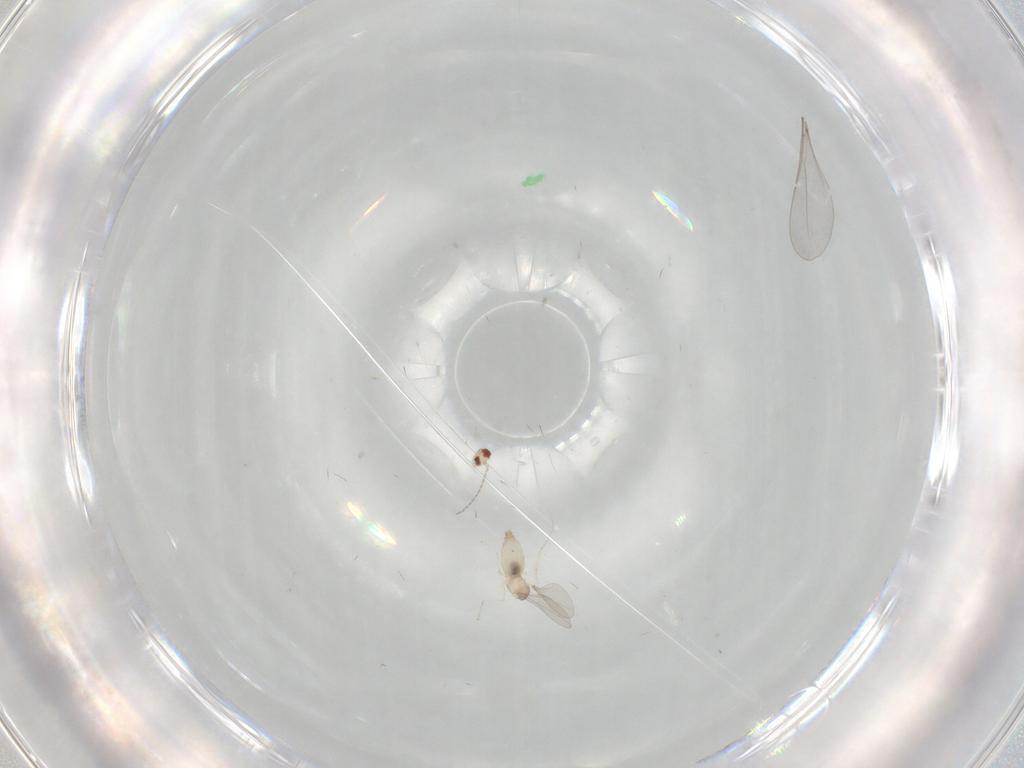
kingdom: Animalia
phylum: Arthropoda
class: Insecta
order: Diptera
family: Cecidomyiidae
